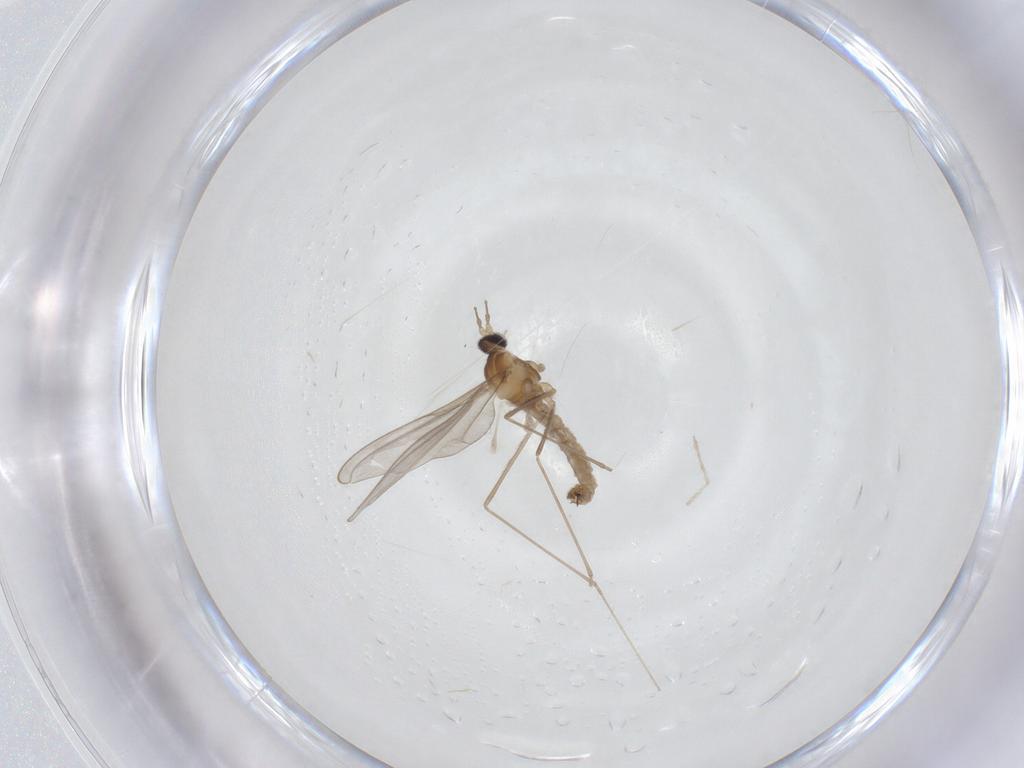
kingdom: Animalia
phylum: Arthropoda
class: Insecta
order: Diptera
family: Cecidomyiidae
